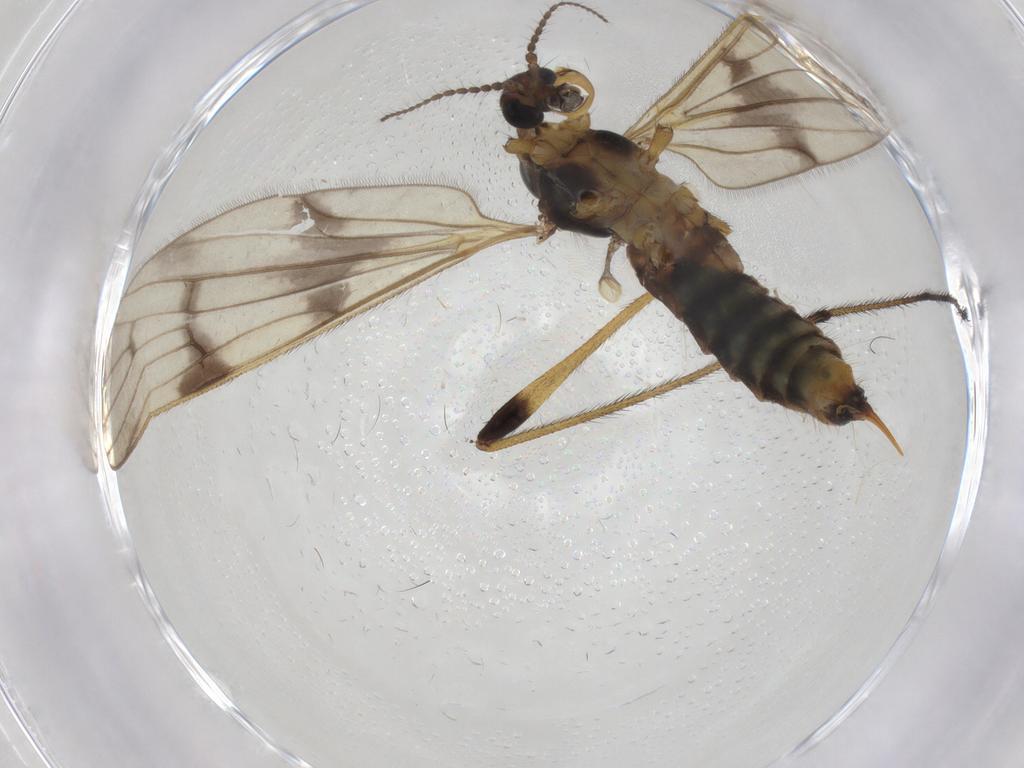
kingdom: Animalia
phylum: Arthropoda
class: Insecta
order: Diptera
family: Limoniidae
